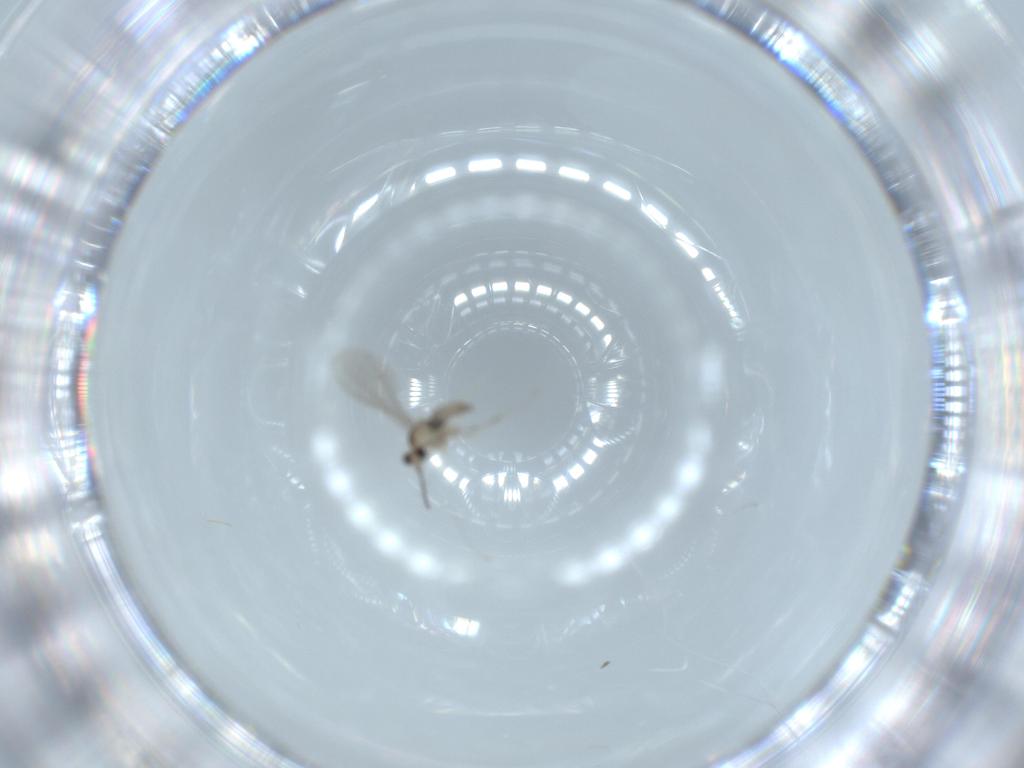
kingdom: Animalia
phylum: Arthropoda
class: Insecta
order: Diptera
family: Cecidomyiidae
